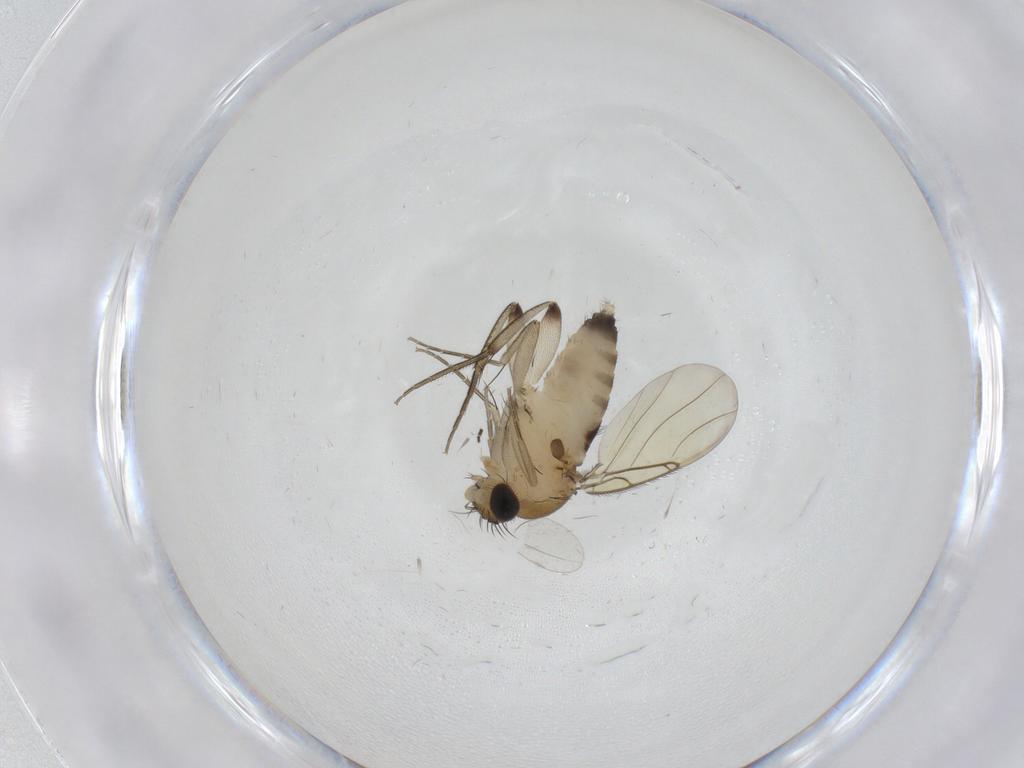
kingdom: Animalia
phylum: Arthropoda
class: Insecta
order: Diptera
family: Phoridae
